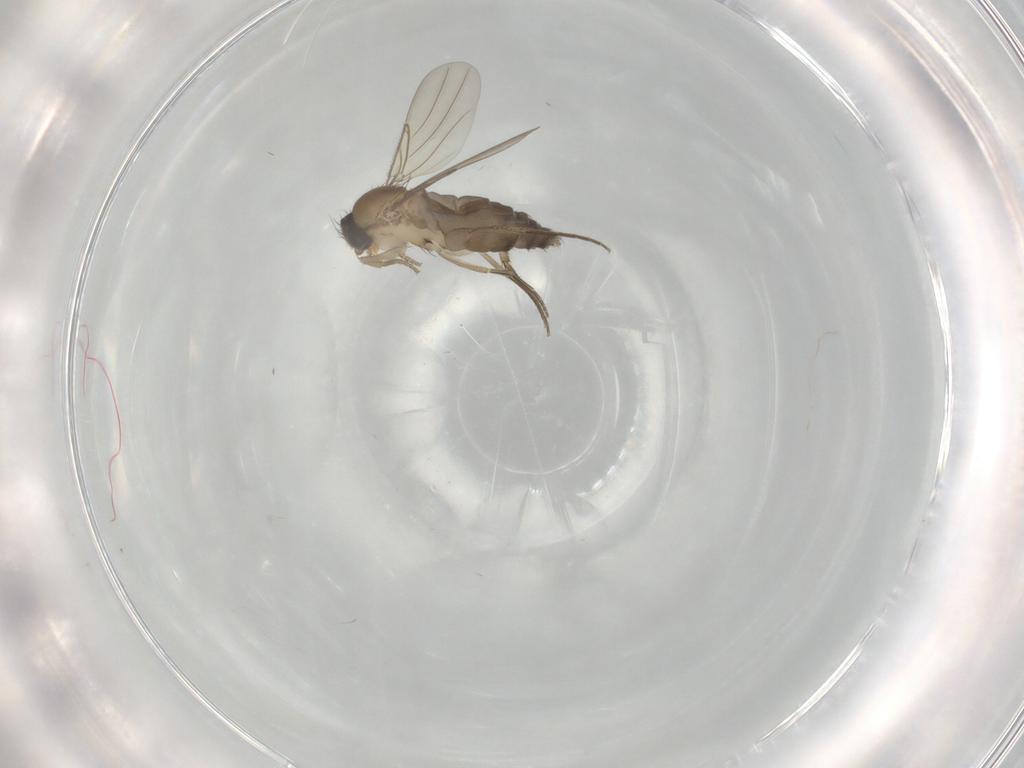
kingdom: Animalia
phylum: Arthropoda
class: Insecta
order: Diptera
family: Phoridae
